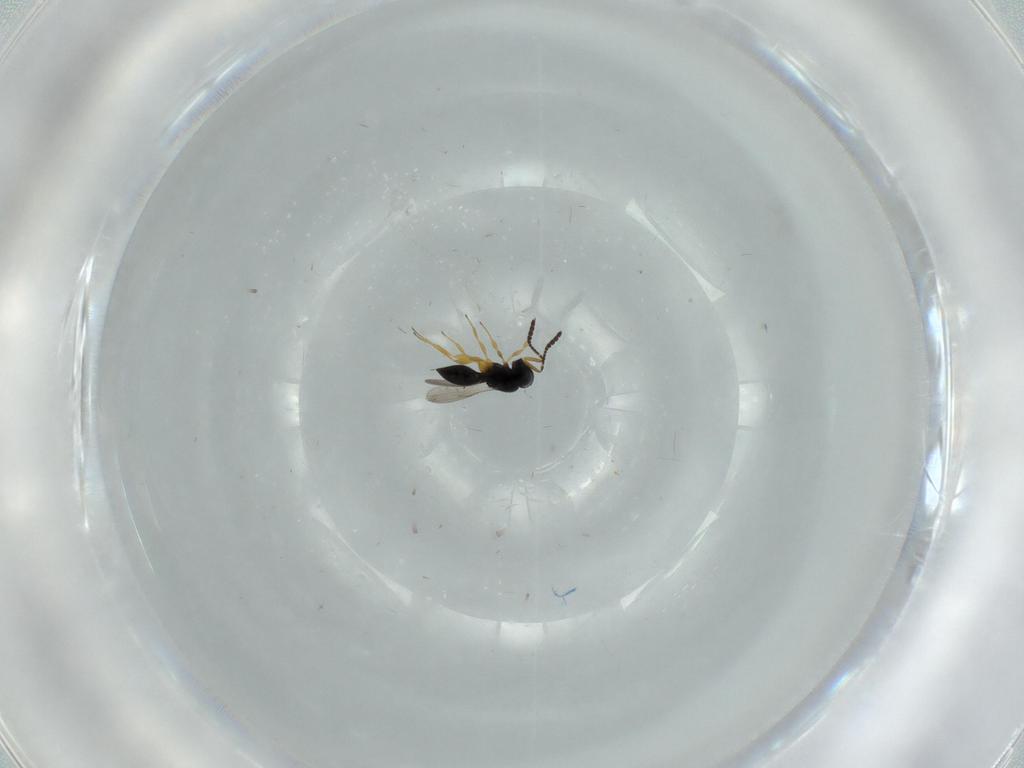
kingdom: Animalia
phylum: Arthropoda
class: Insecta
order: Hymenoptera
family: Scelionidae
